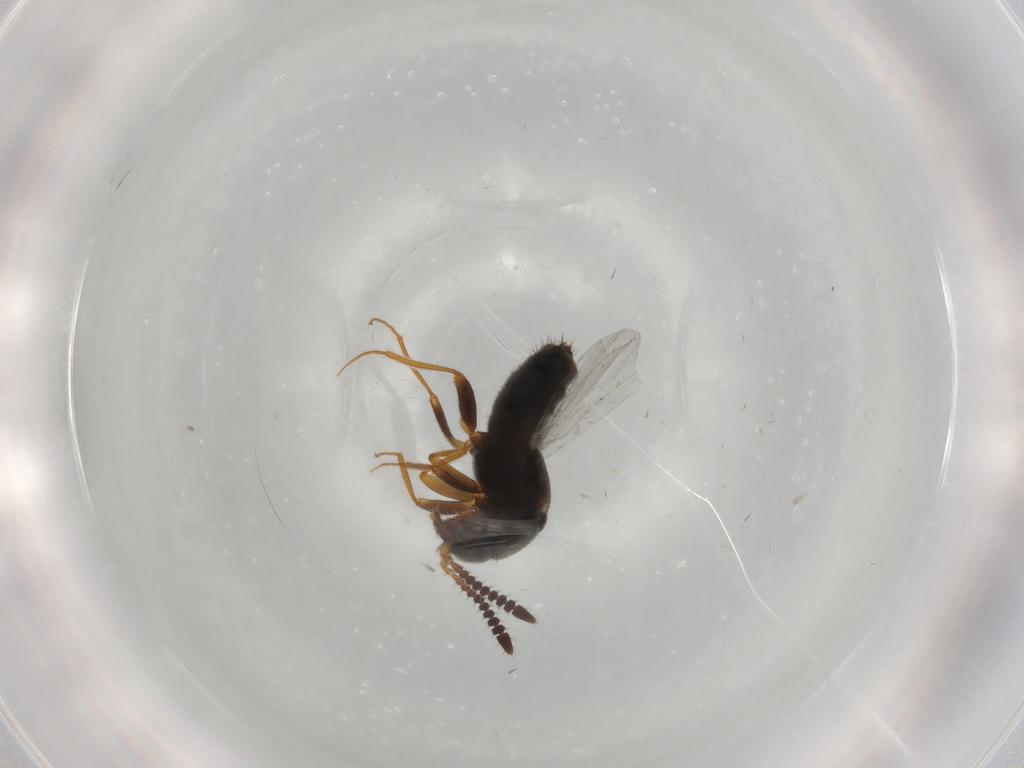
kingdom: Animalia
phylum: Arthropoda
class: Insecta
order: Coleoptera
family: Staphylinidae
